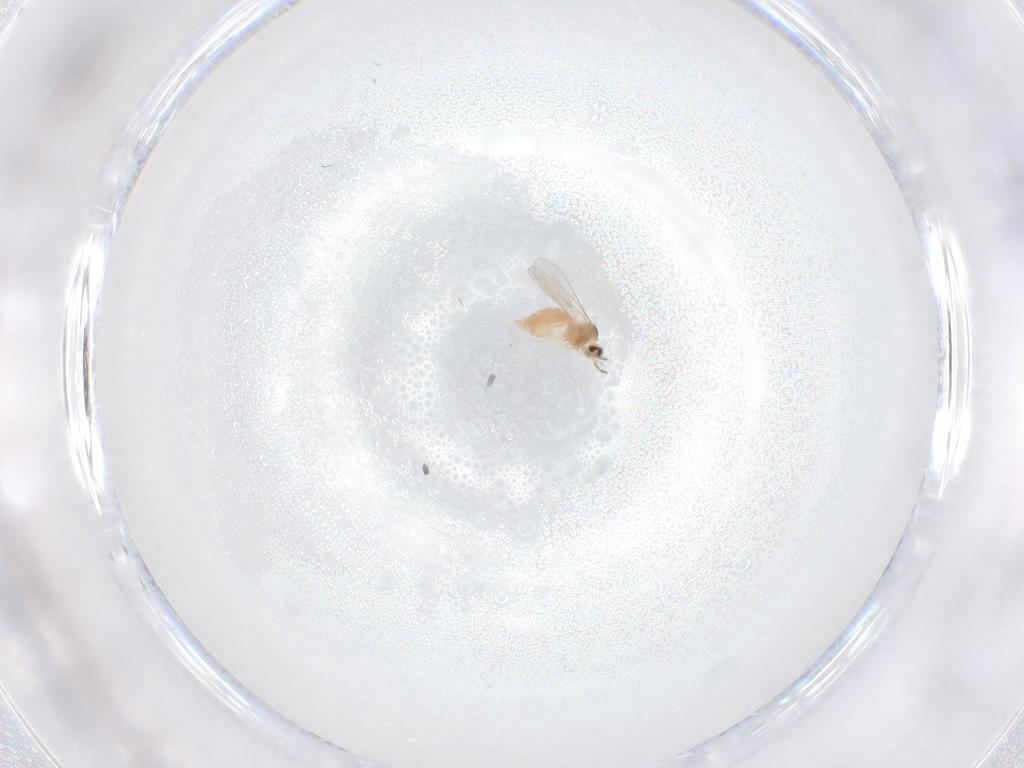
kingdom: Animalia
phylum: Arthropoda
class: Insecta
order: Diptera
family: Cecidomyiidae
